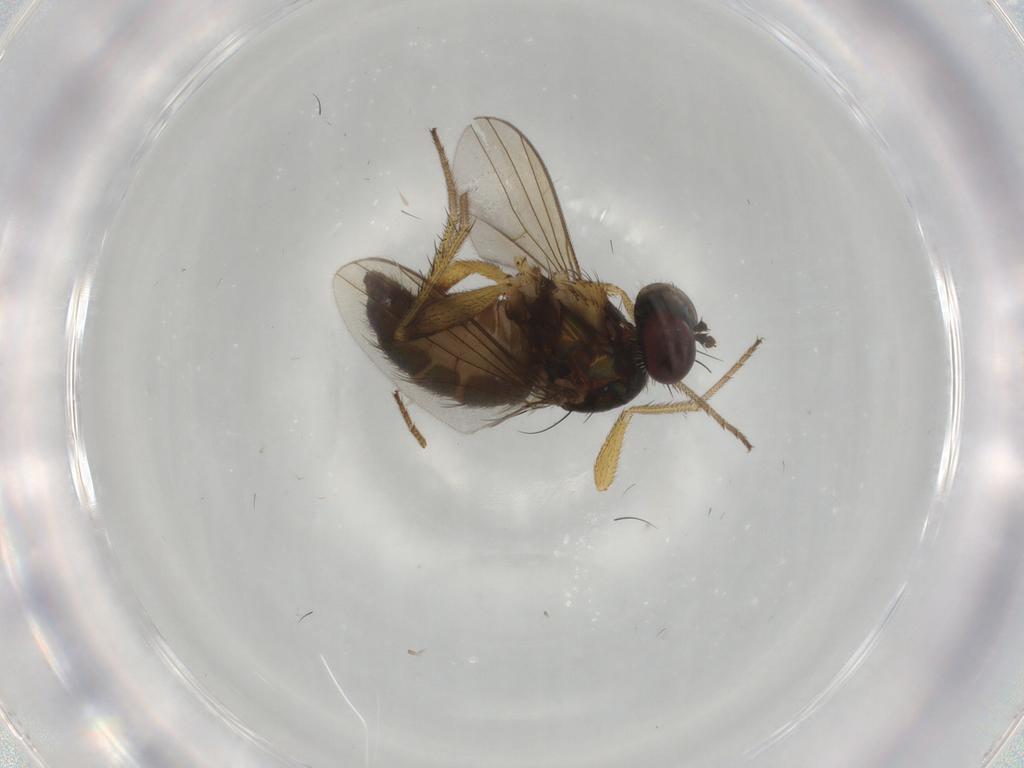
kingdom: Animalia
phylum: Arthropoda
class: Insecta
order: Diptera
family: Dolichopodidae
